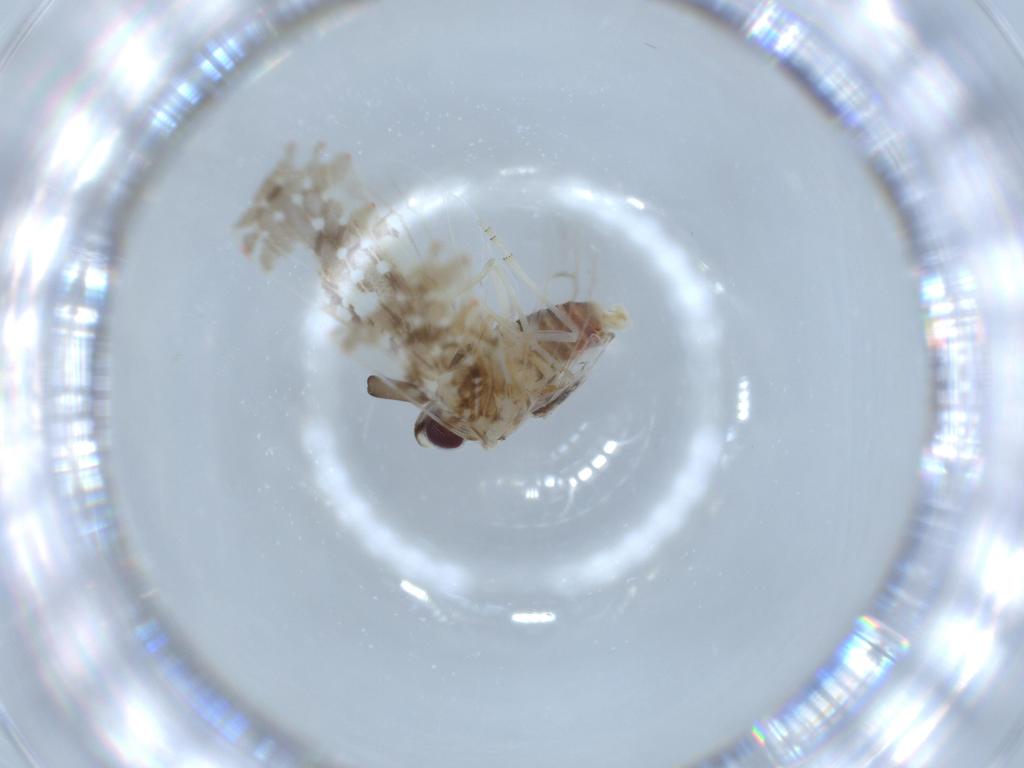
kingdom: Animalia
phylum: Arthropoda
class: Insecta
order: Hemiptera
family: Derbidae
